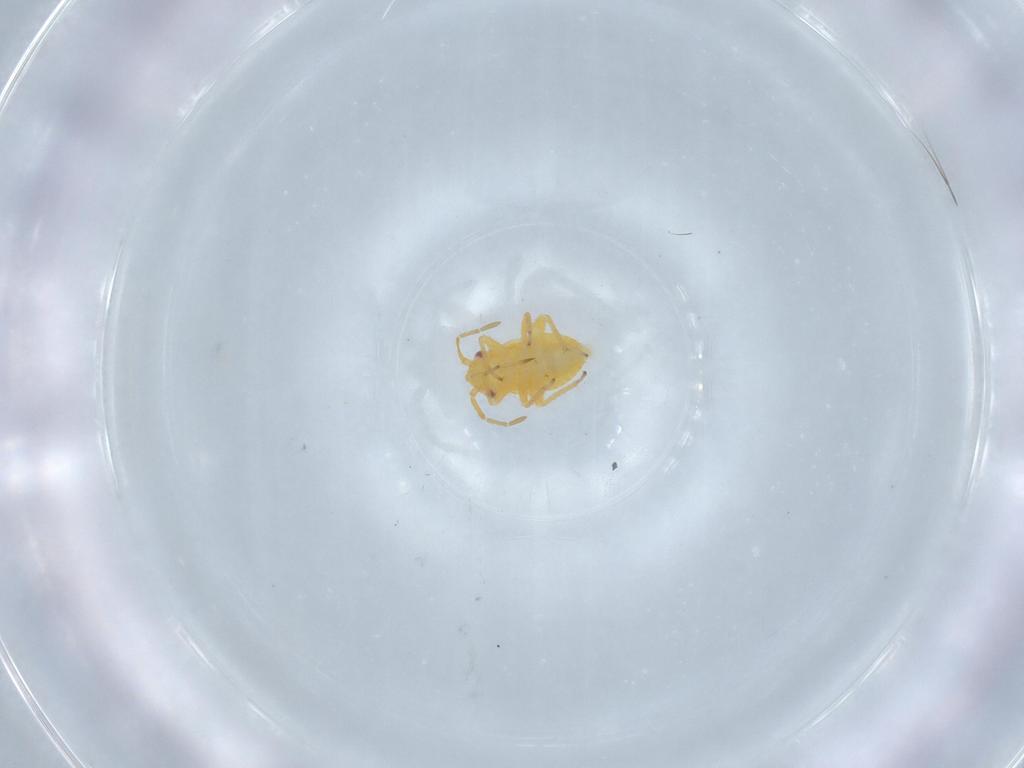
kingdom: Animalia
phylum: Arthropoda
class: Insecta
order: Hemiptera
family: Miridae
